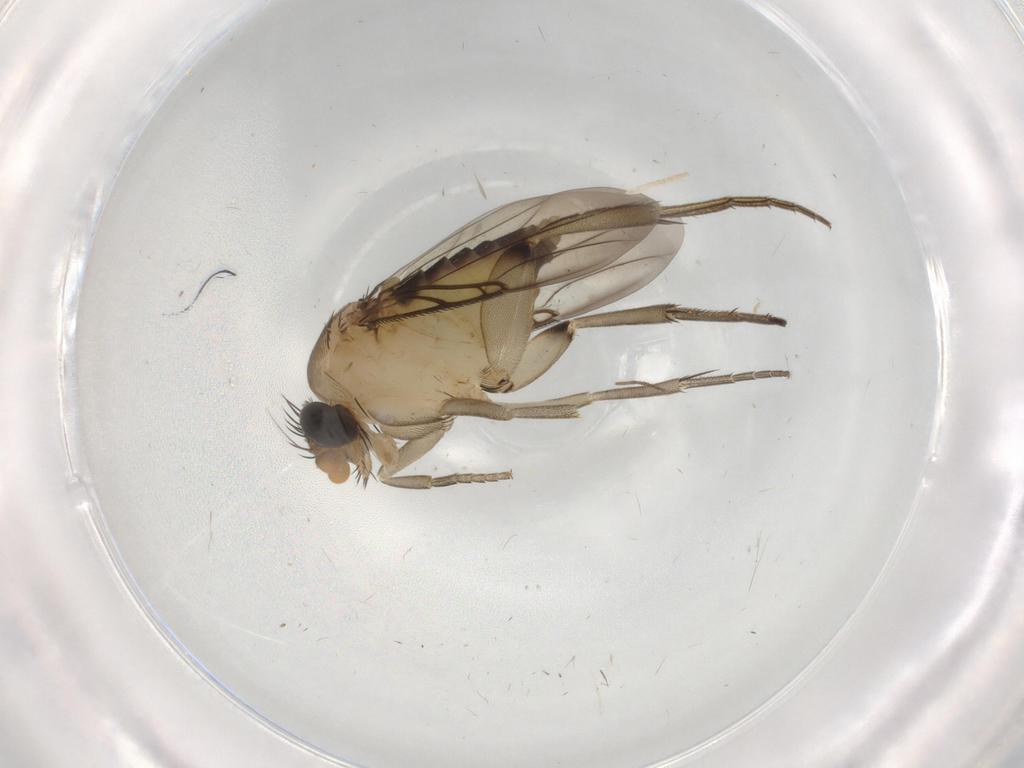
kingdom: Animalia
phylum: Arthropoda
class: Insecta
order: Diptera
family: Phoridae
